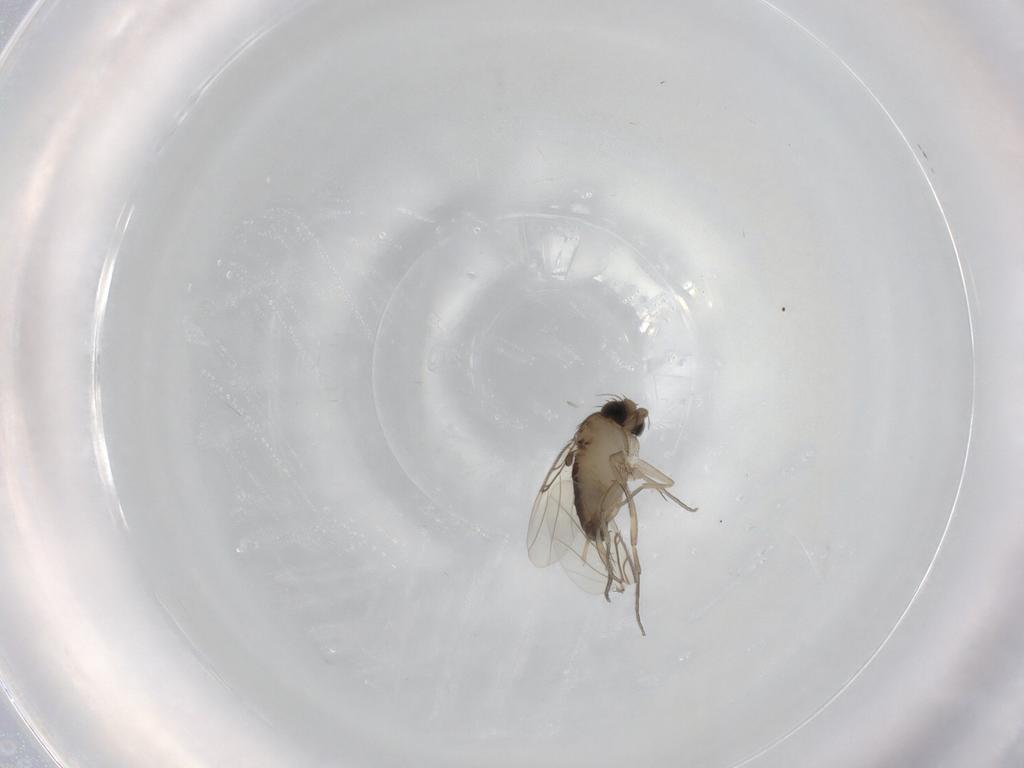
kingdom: Animalia
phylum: Arthropoda
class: Insecta
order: Diptera
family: Phoridae
